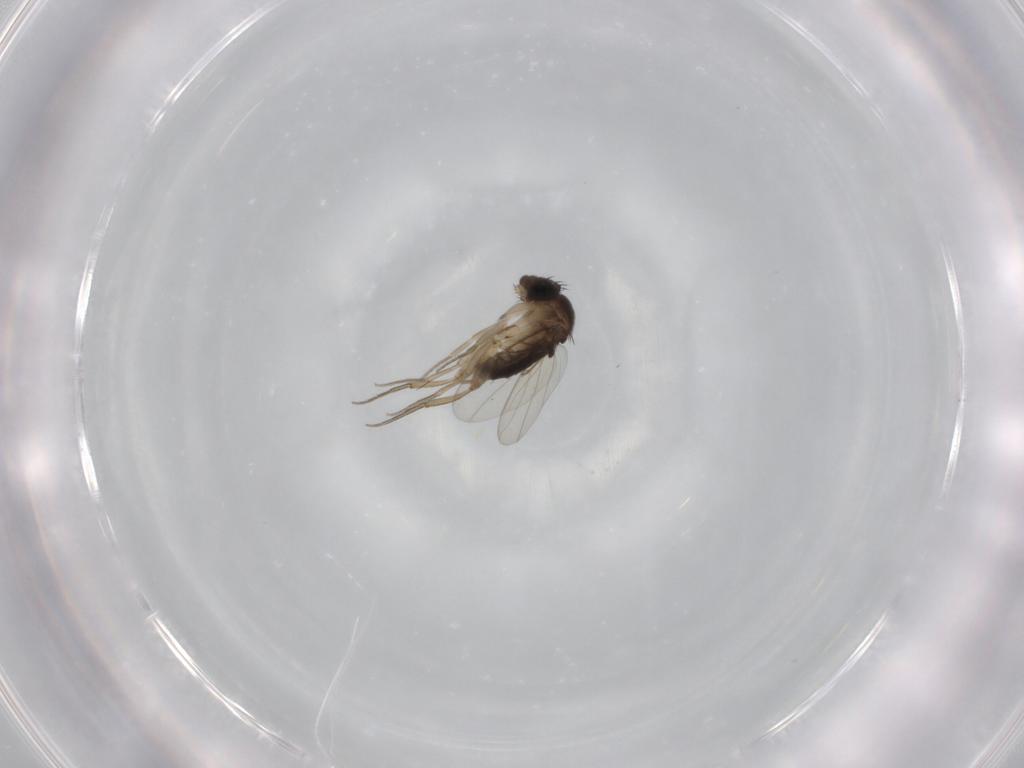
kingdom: Animalia
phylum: Arthropoda
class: Insecta
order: Diptera
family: Phoridae
